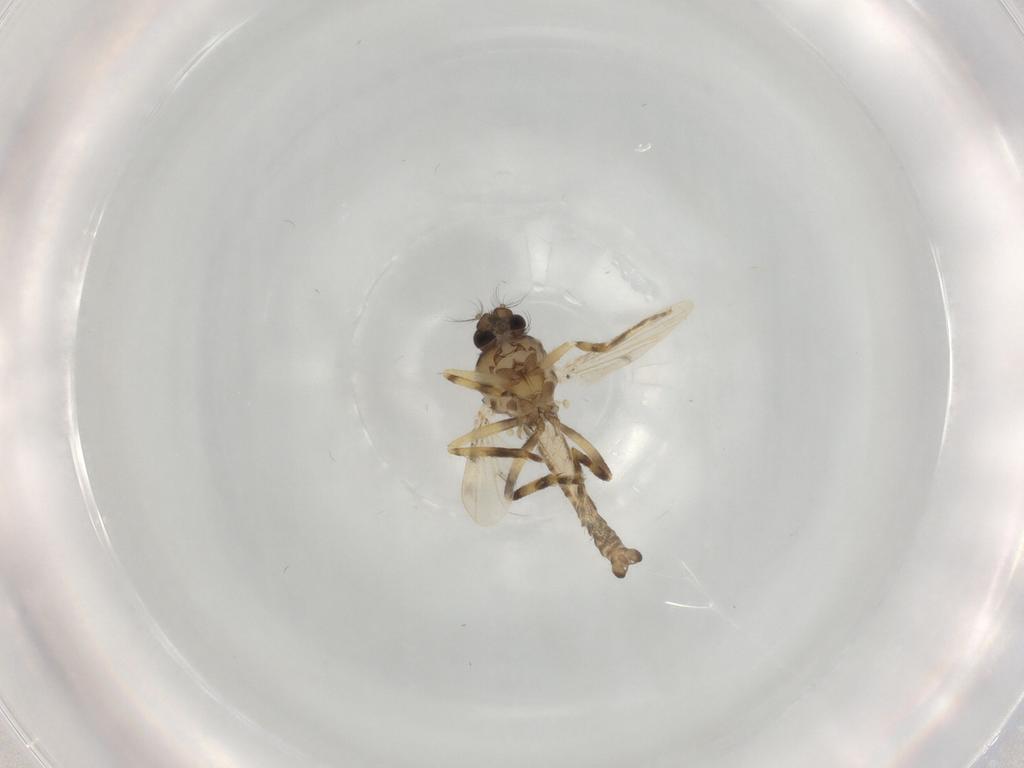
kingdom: Animalia
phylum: Arthropoda
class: Insecta
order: Diptera
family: Ceratopogonidae
